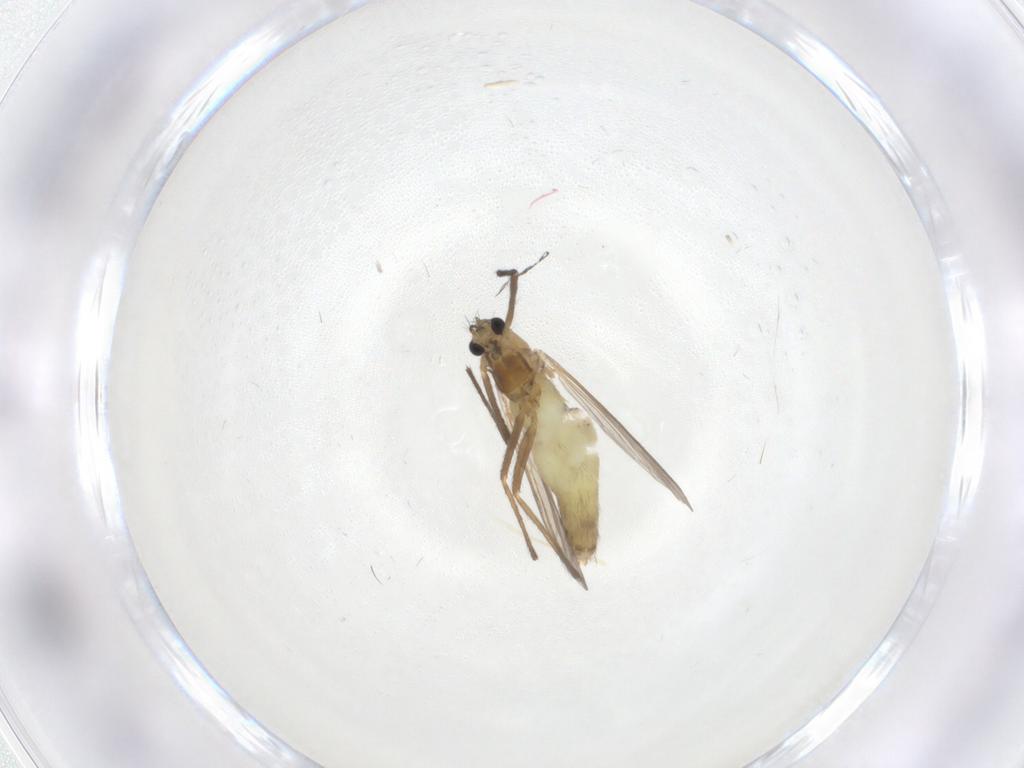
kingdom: Animalia
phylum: Arthropoda
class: Insecta
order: Diptera
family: Chironomidae
